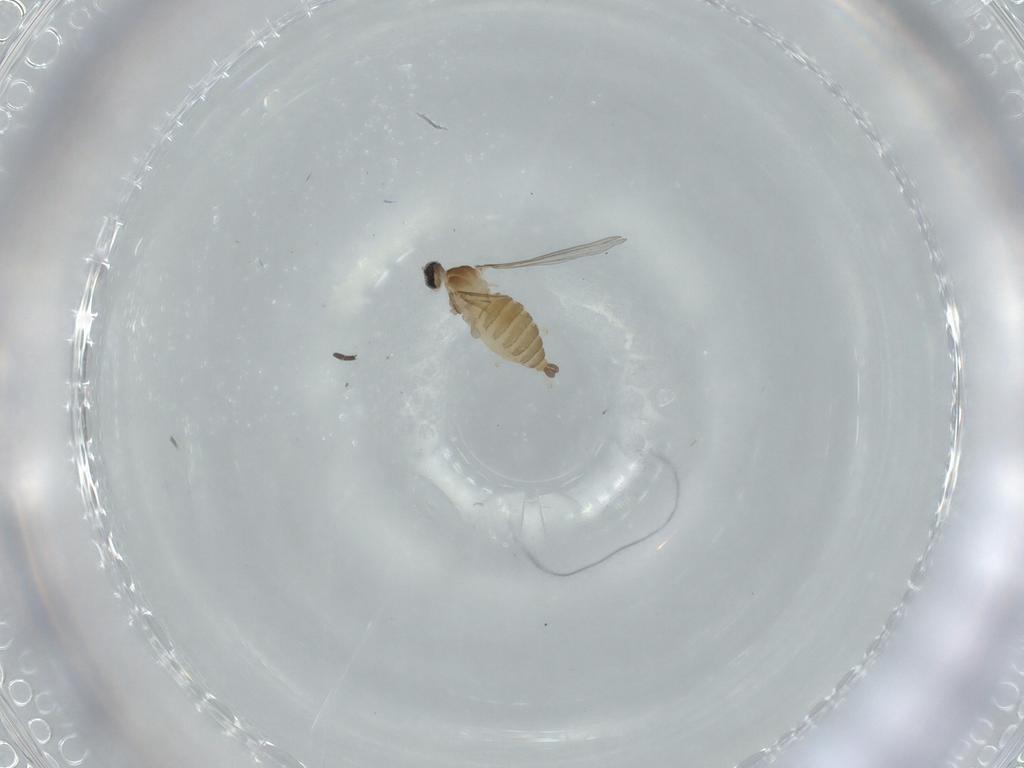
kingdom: Animalia
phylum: Arthropoda
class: Insecta
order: Diptera
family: Cecidomyiidae
